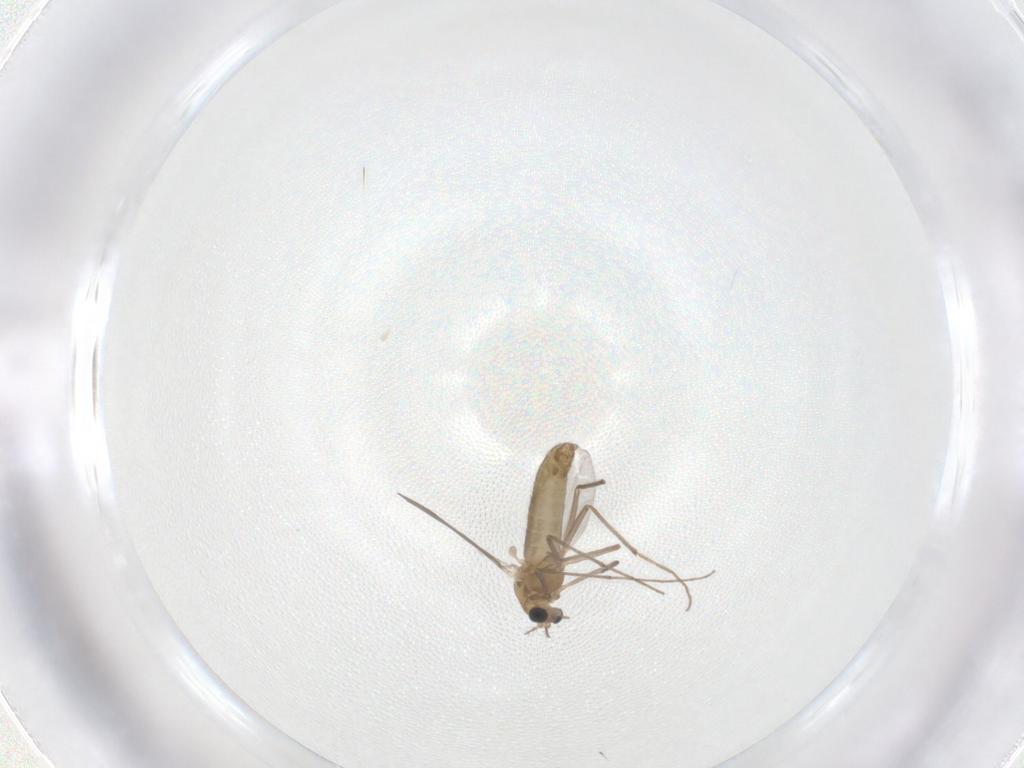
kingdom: Animalia
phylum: Arthropoda
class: Insecta
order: Diptera
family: Chironomidae
